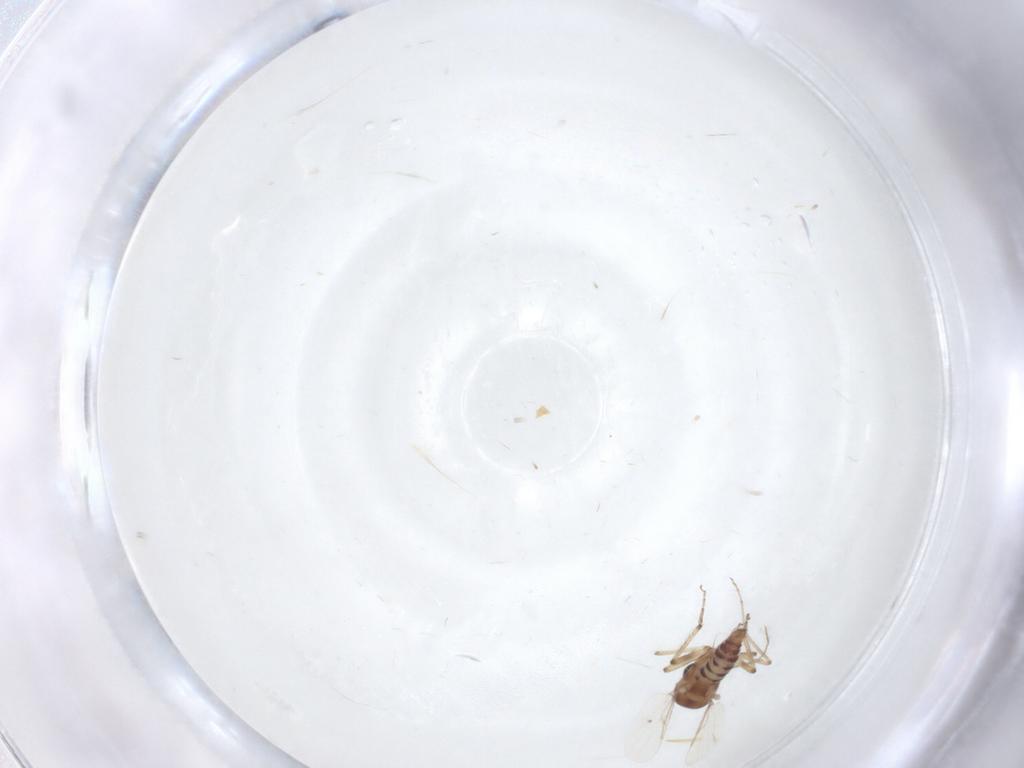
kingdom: Animalia
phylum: Arthropoda
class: Insecta
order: Diptera
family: Ceratopogonidae
